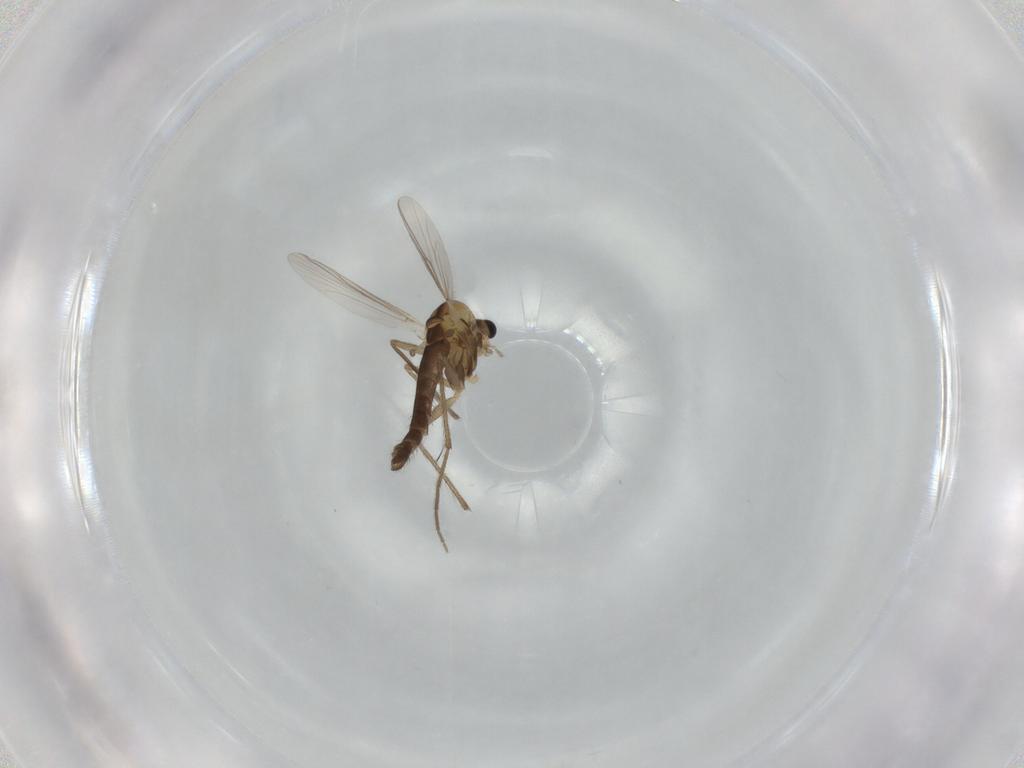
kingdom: Animalia
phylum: Arthropoda
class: Insecta
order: Diptera
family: Chironomidae
